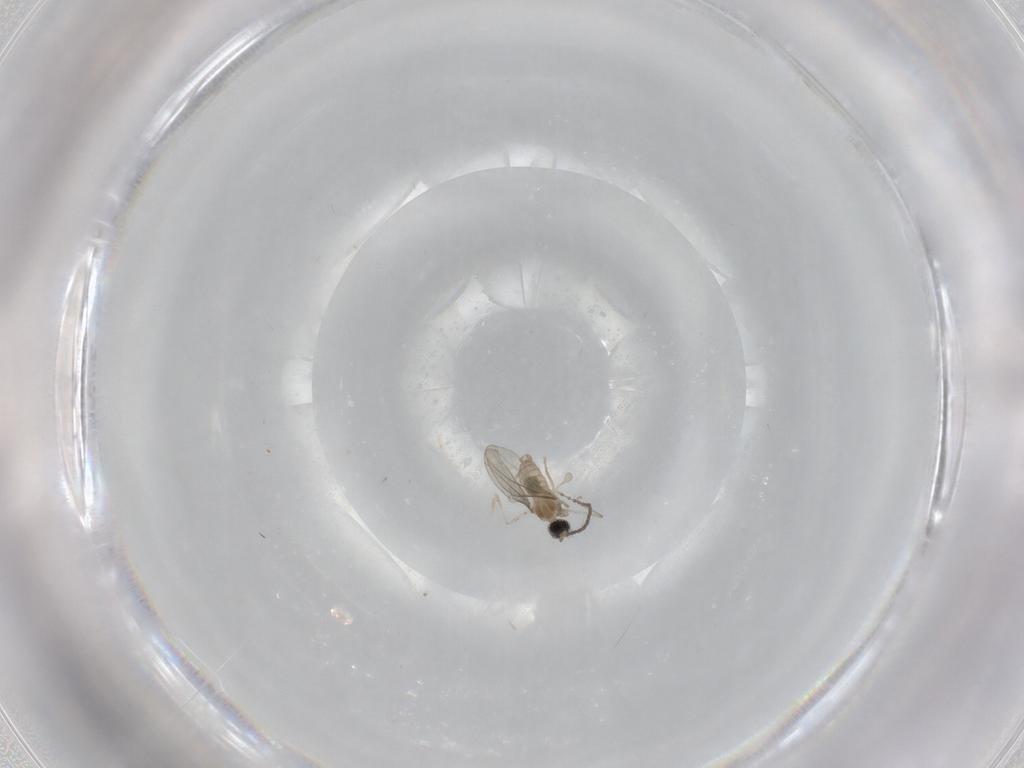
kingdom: Animalia
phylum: Arthropoda
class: Insecta
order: Diptera
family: Cecidomyiidae
